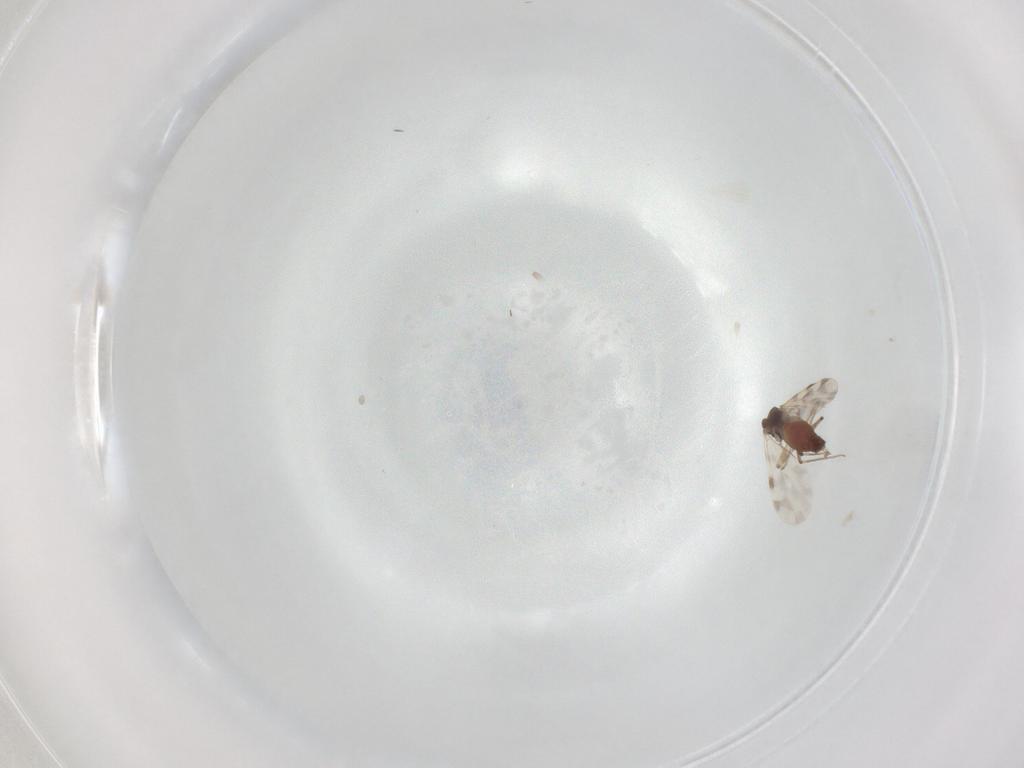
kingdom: Animalia
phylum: Arthropoda
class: Insecta
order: Diptera
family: Ceratopogonidae
